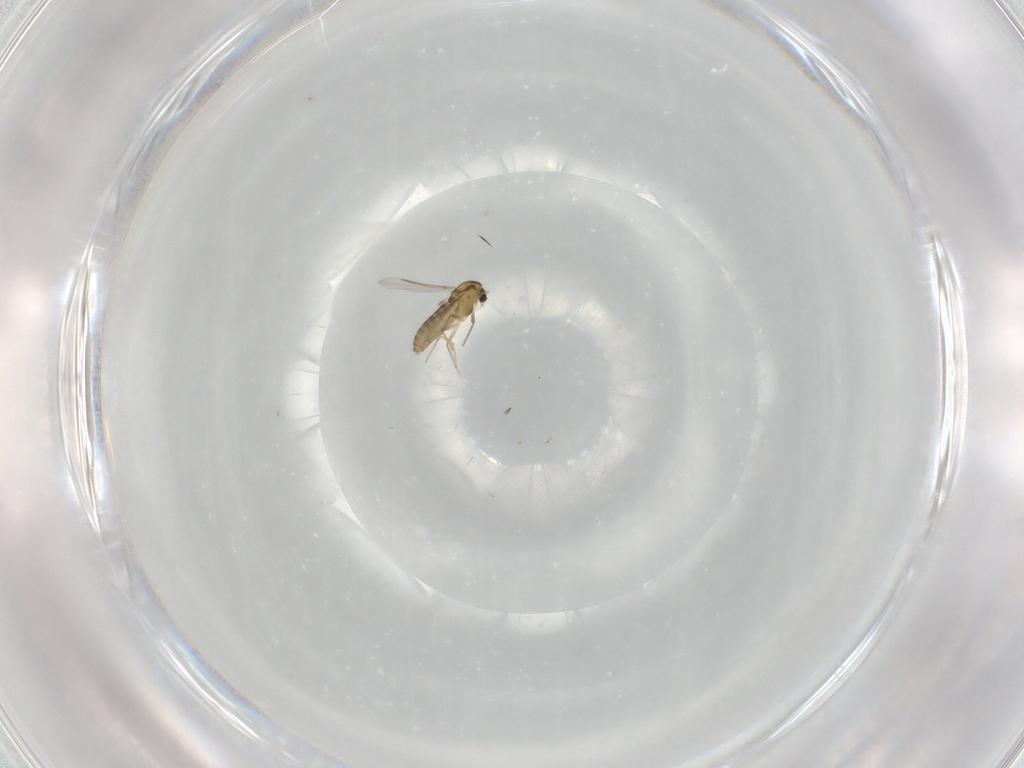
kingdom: Animalia
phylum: Arthropoda
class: Insecta
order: Diptera
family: Chironomidae
